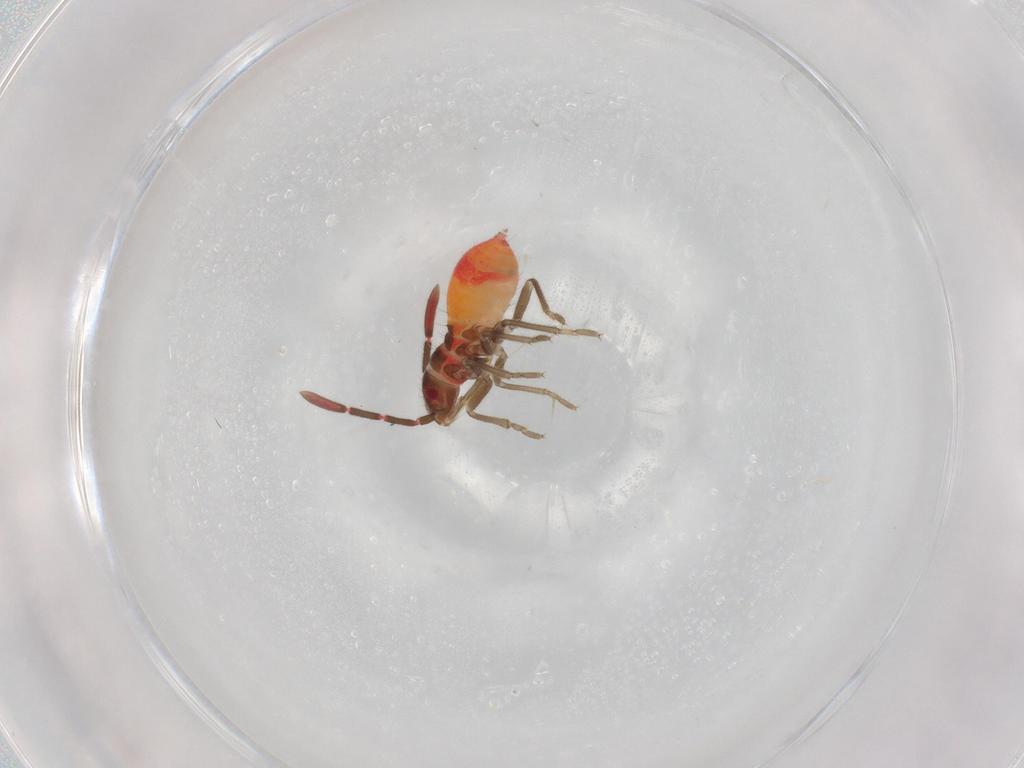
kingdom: Animalia
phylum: Arthropoda
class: Insecta
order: Hemiptera
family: Rhyparochromidae
